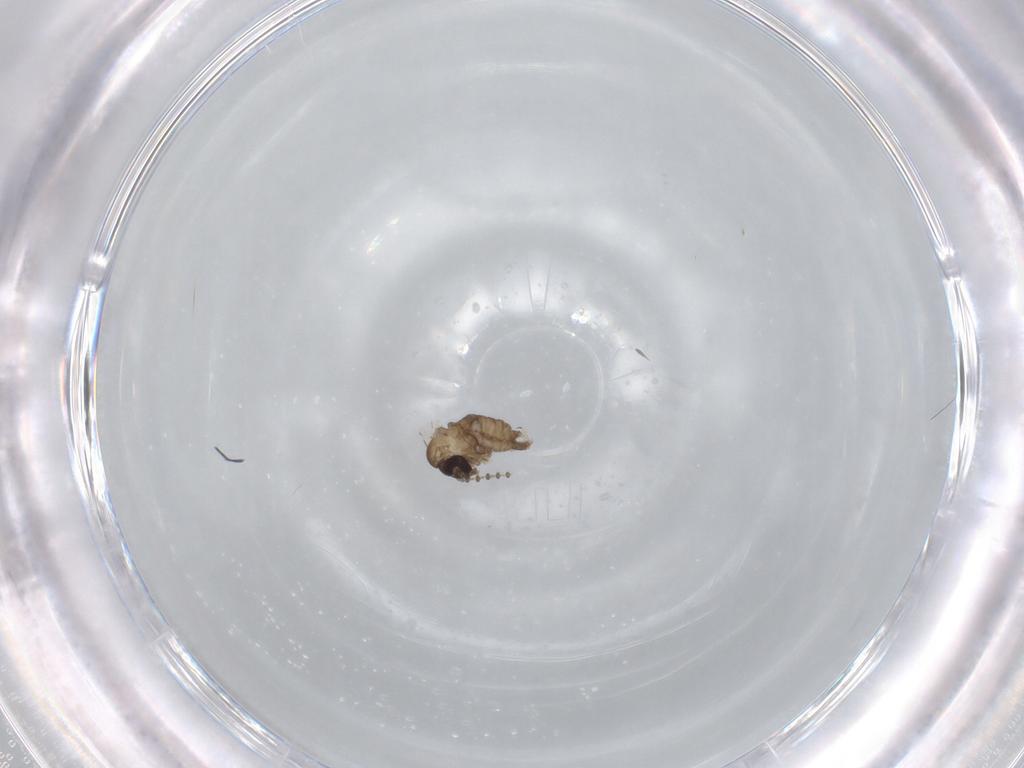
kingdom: Animalia
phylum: Arthropoda
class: Insecta
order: Diptera
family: Psychodidae
